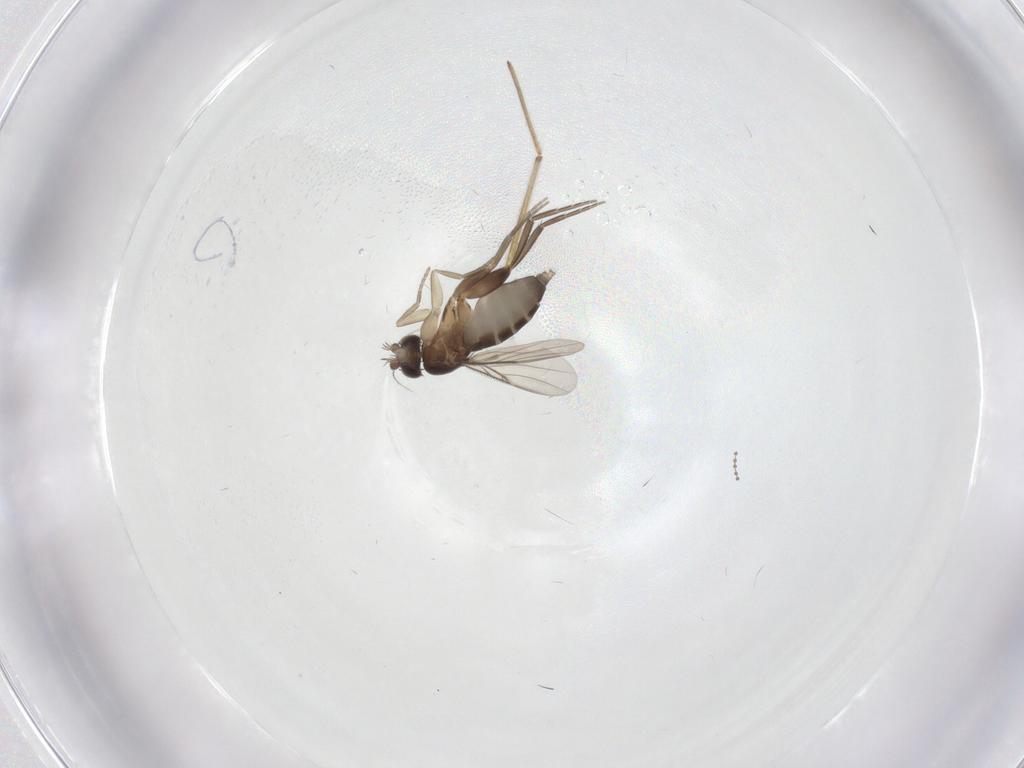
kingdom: Animalia
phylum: Arthropoda
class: Insecta
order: Diptera
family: Phoridae
